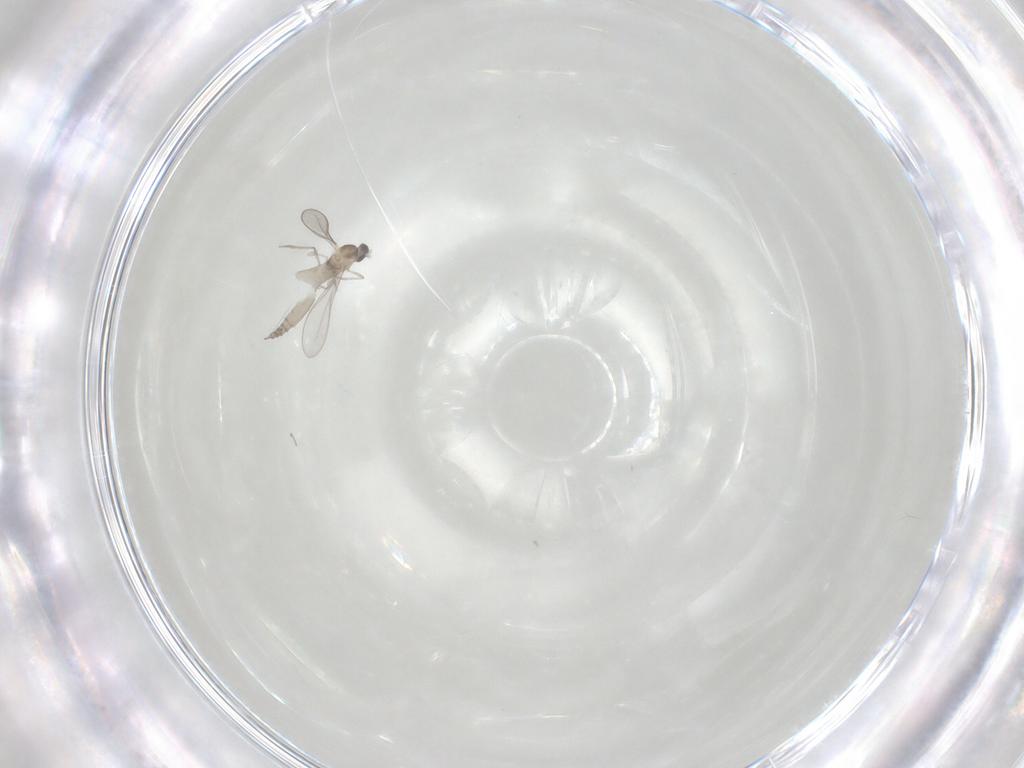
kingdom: Animalia
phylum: Arthropoda
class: Insecta
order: Diptera
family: Cecidomyiidae
